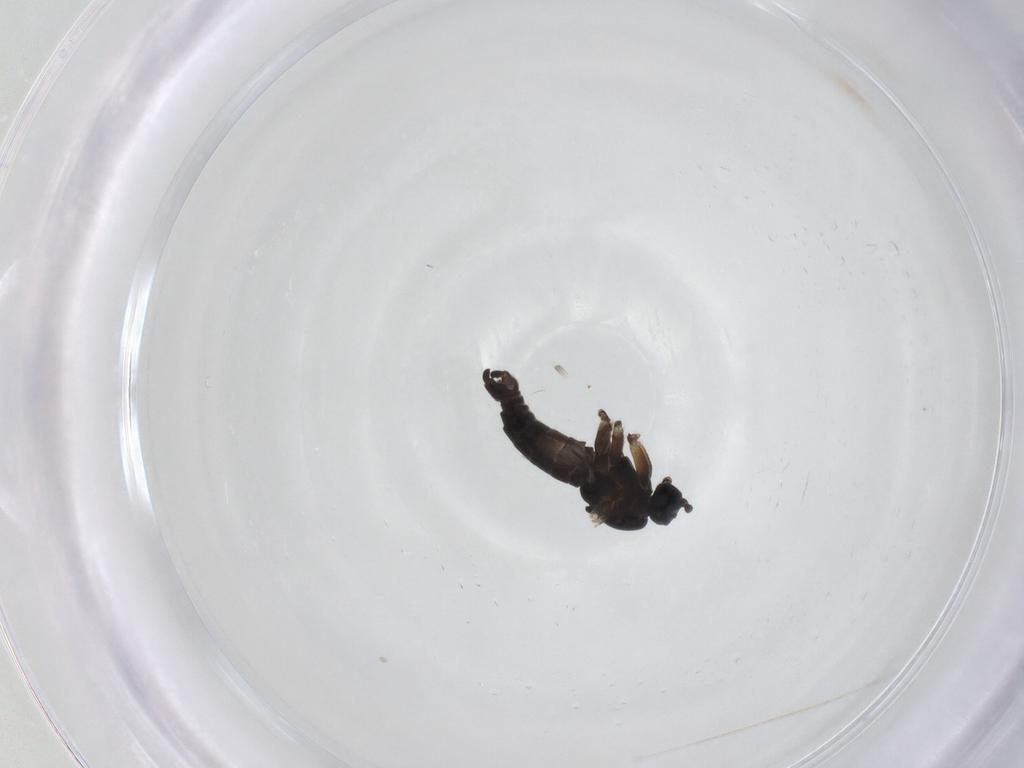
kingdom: Animalia
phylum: Arthropoda
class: Insecta
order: Diptera
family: Sciaridae
